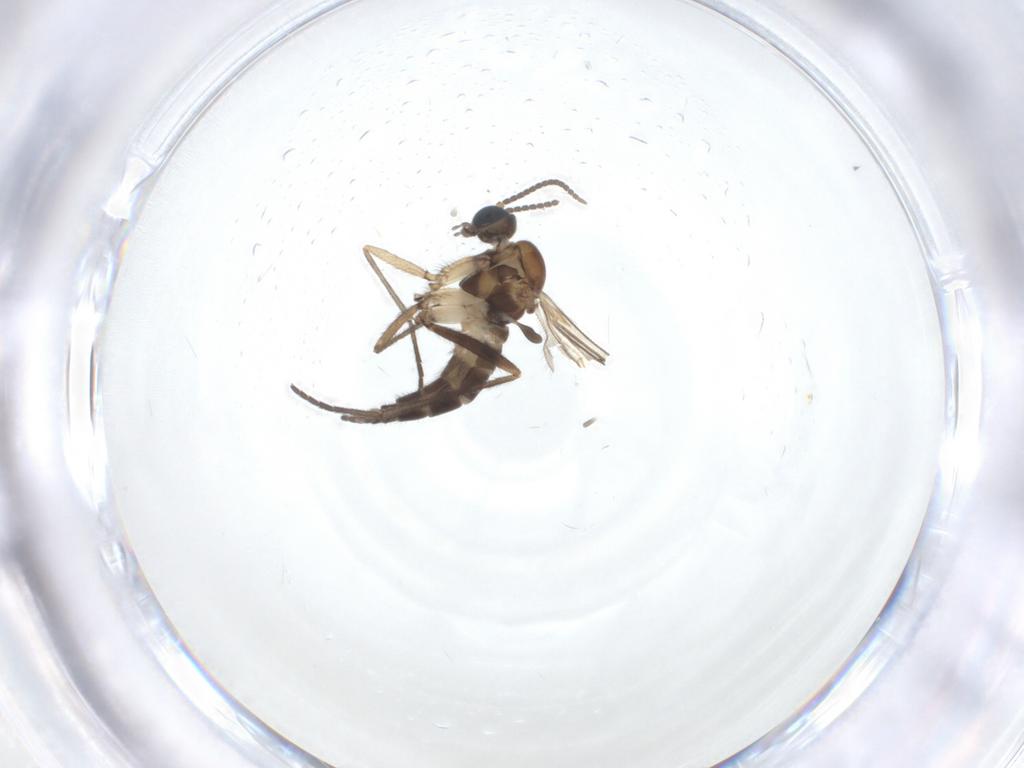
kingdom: Animalia
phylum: Arthropoda
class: Insecta
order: Diptera
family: Sciaridae
